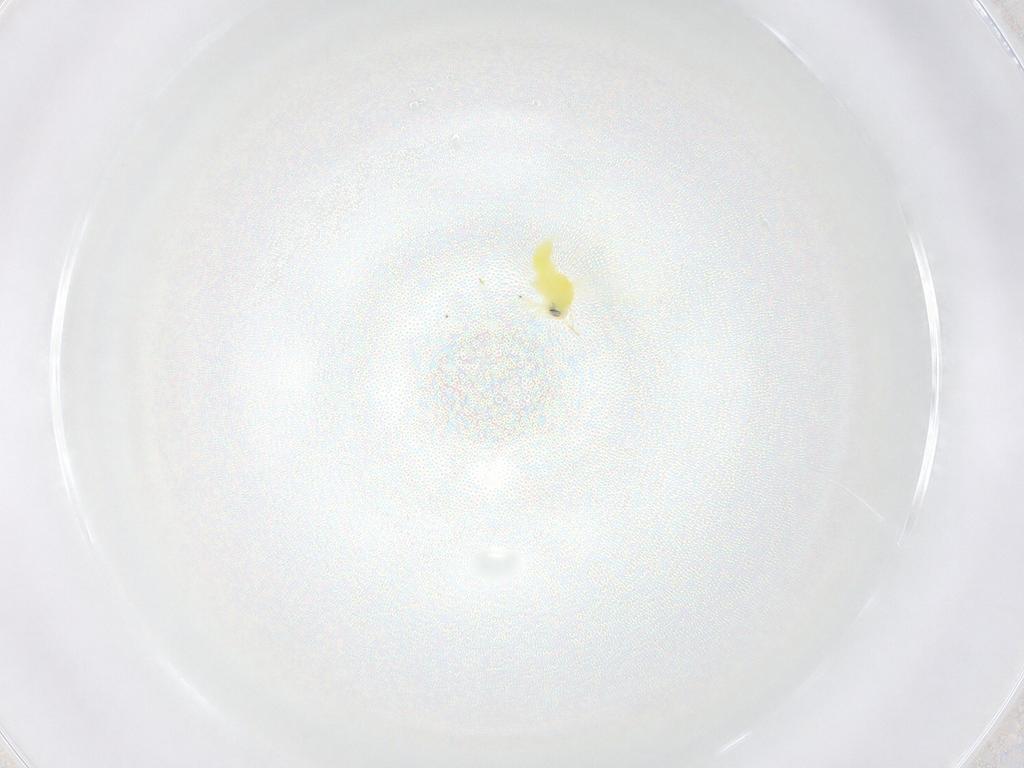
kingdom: Animalia
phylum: Arthropoda
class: Insecta
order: Hemiptera
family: Aleyrodidae
